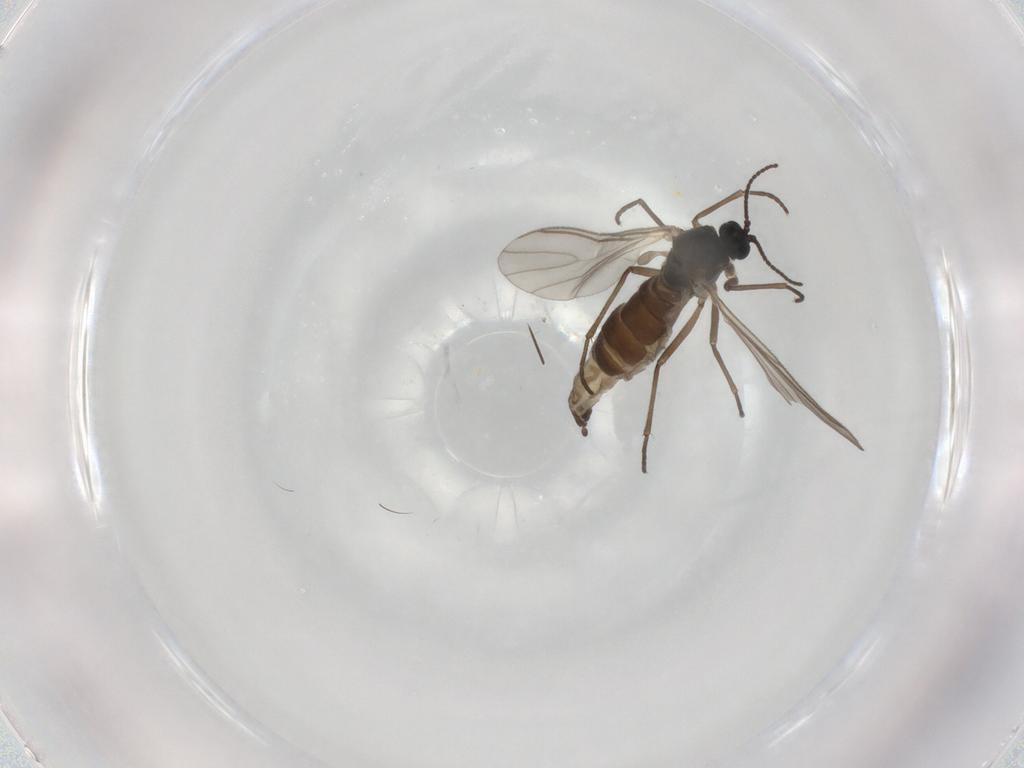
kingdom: Animalia
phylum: Arthropoda
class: Insecta
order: Diptera
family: Sciaridae
